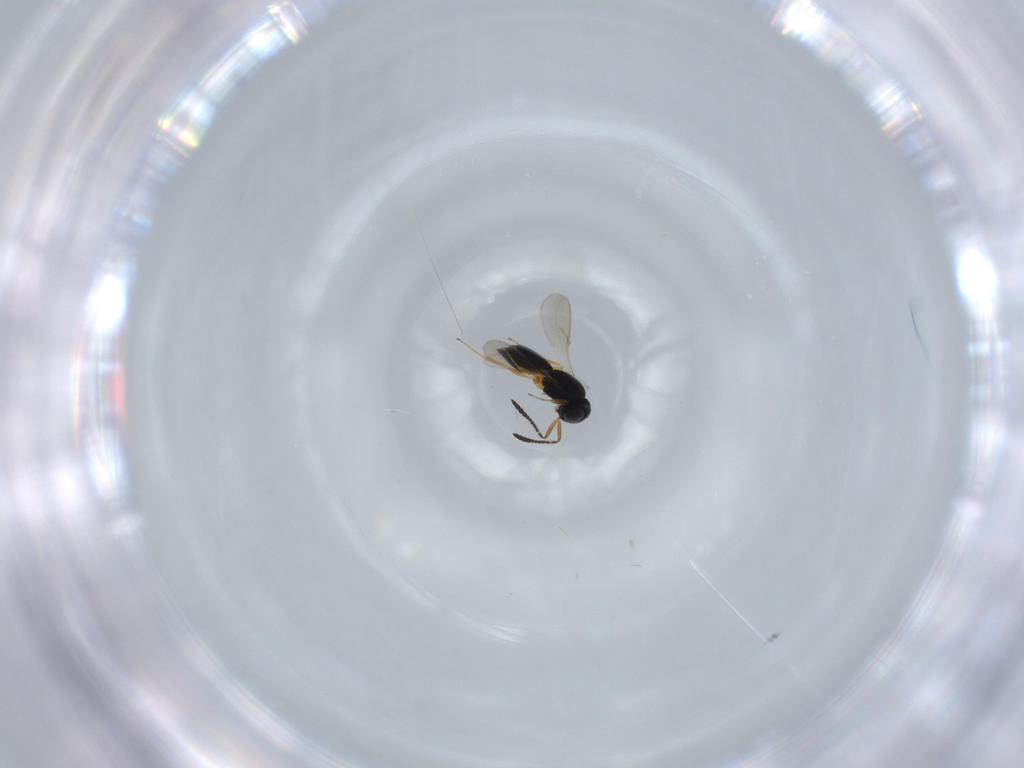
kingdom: Animalia
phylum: Arthropoda
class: Insecta
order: Hymenoptera
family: Scelionidae
